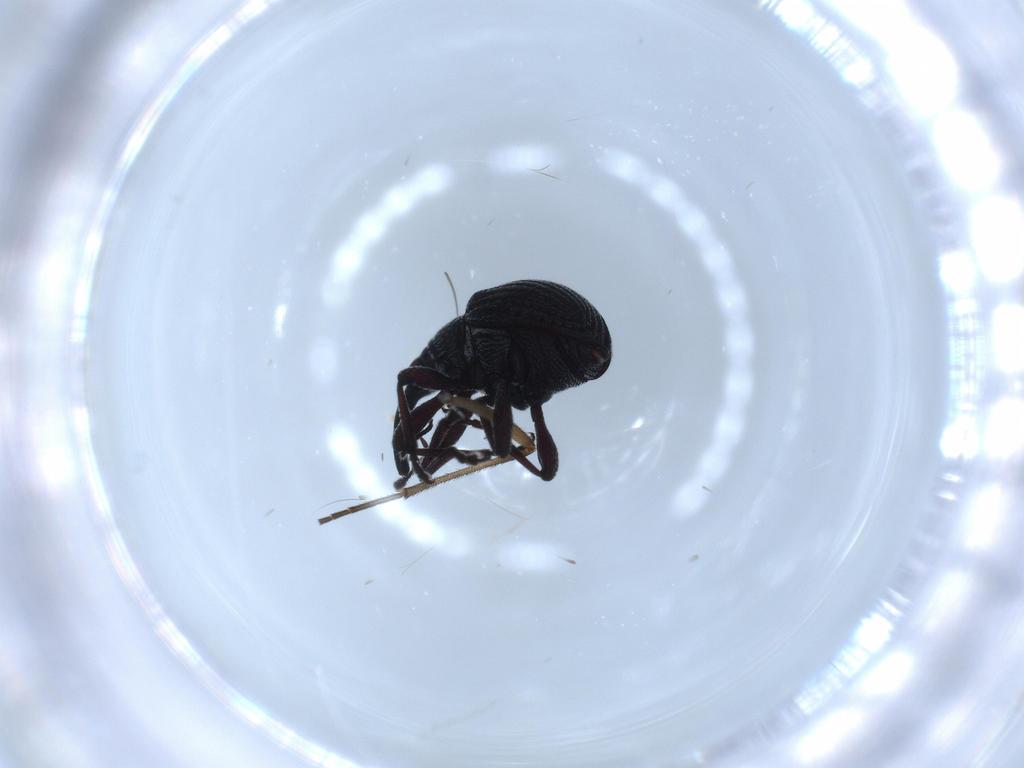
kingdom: Animalia
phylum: Arthropoda
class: Insecta
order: Coleoptera
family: Brentidae
